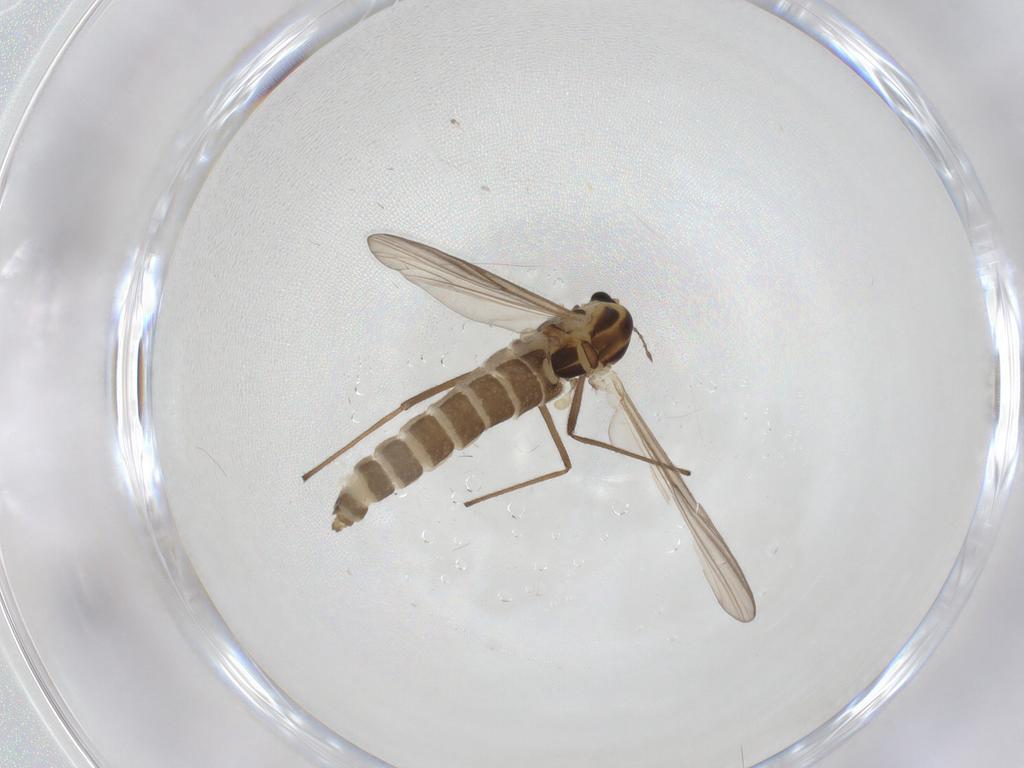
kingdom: Animalia
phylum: Arthropoda
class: Insecta
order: Diptera
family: Chironomidae
